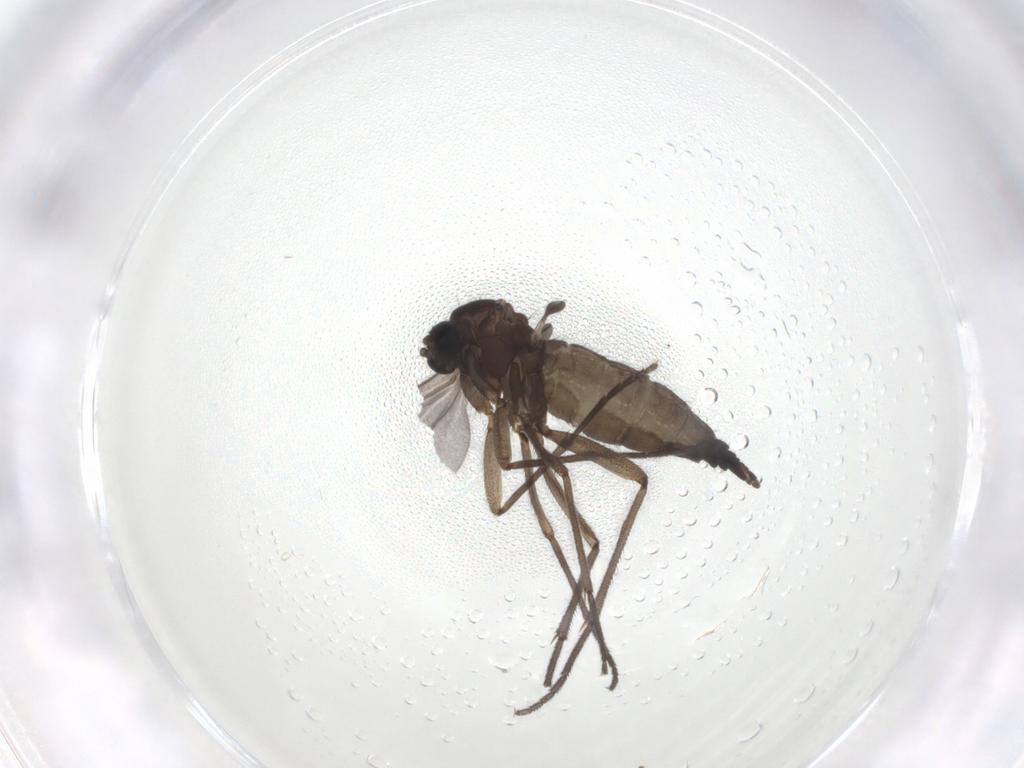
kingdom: Animalia
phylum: Arthropoda
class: Insecta
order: Diptera
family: Sciaridae
